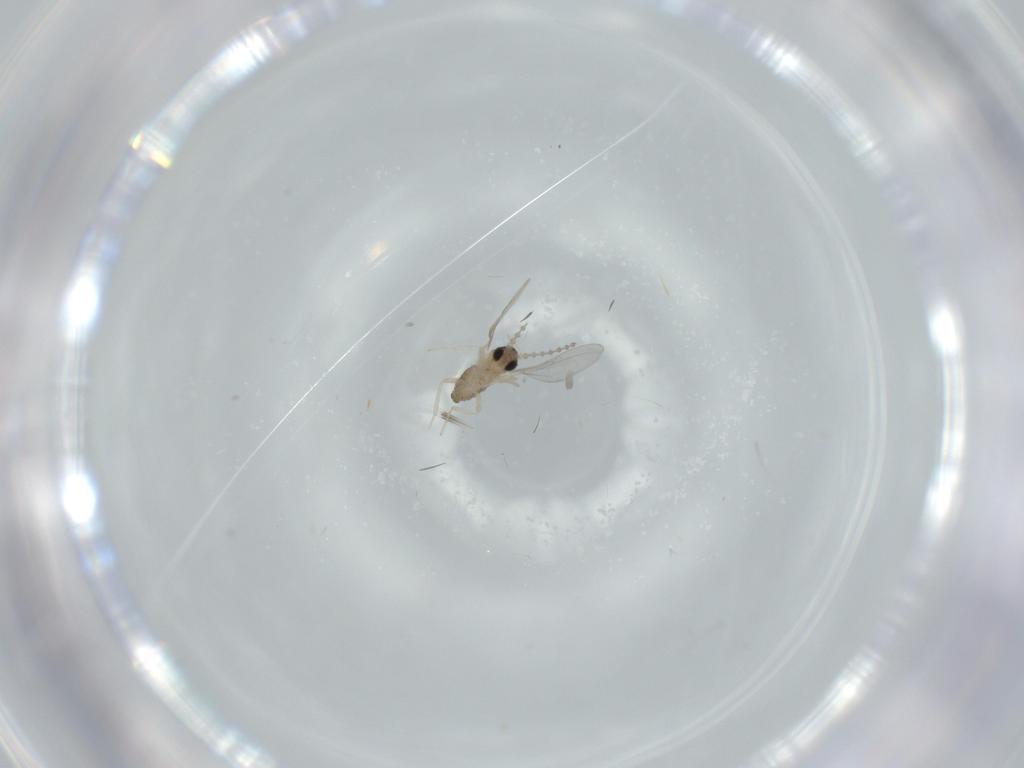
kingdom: Animalia
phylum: Arthropoda
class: Insecta
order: Diptera
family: Cecidomyiidae
